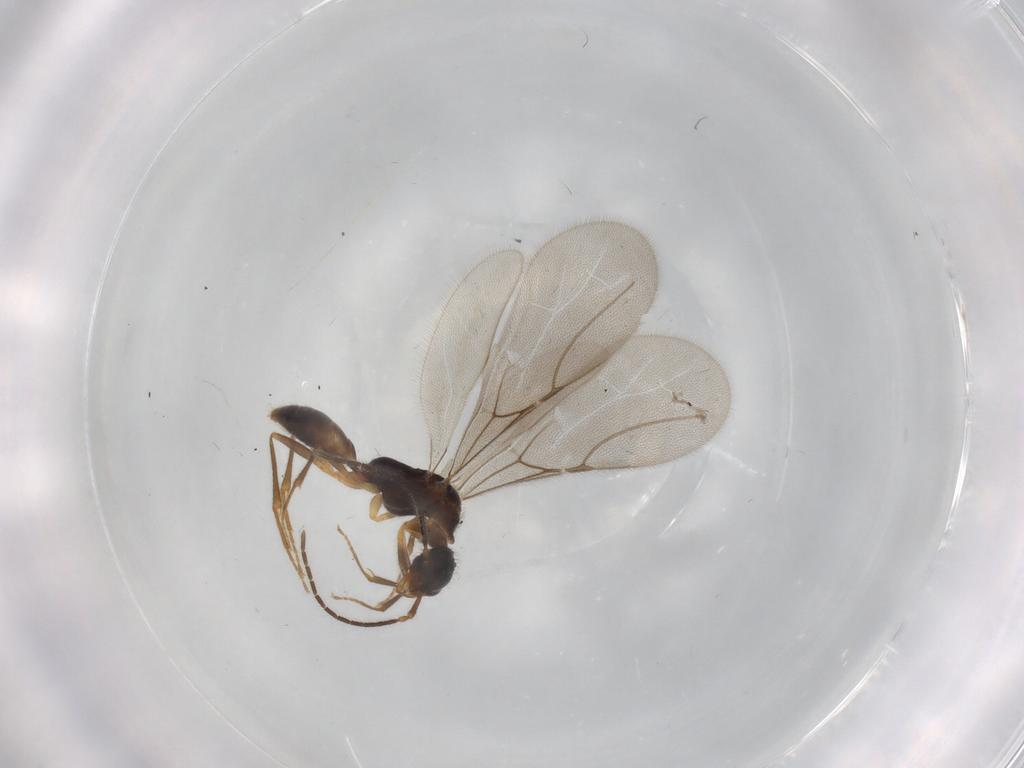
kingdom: Animalia
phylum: Arthropoda
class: Insecta
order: Hymenoptera
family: Bethylidae
